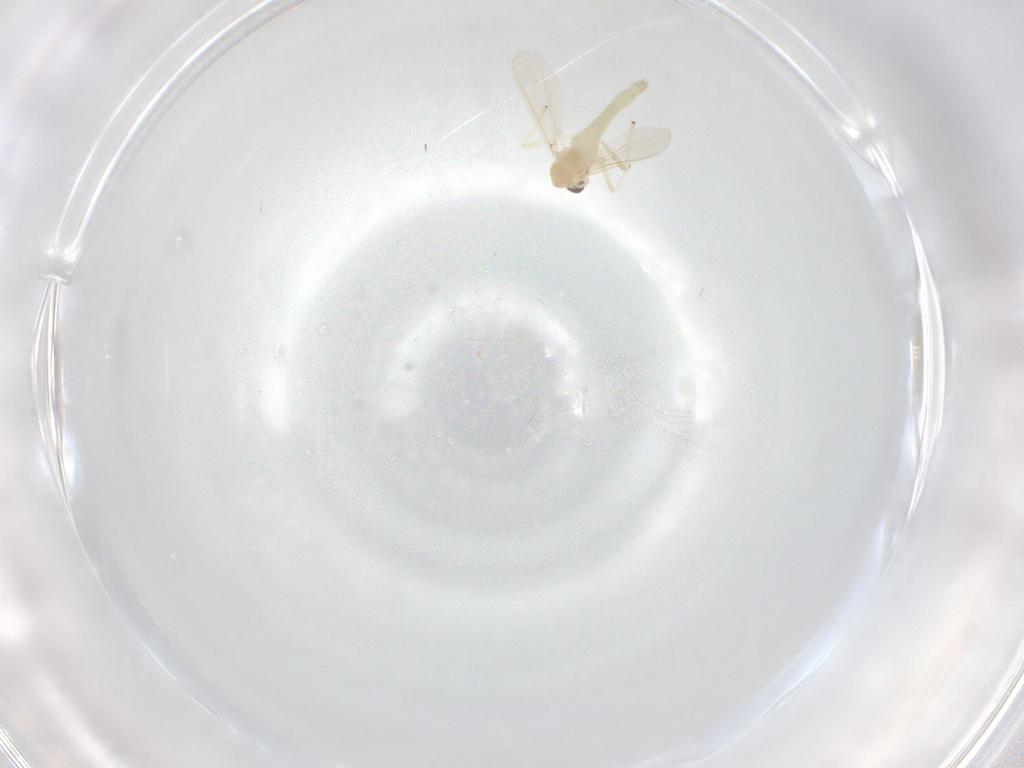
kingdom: Animalia
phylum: Arthropoda
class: Insecta
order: Diptera
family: Chironomidae
